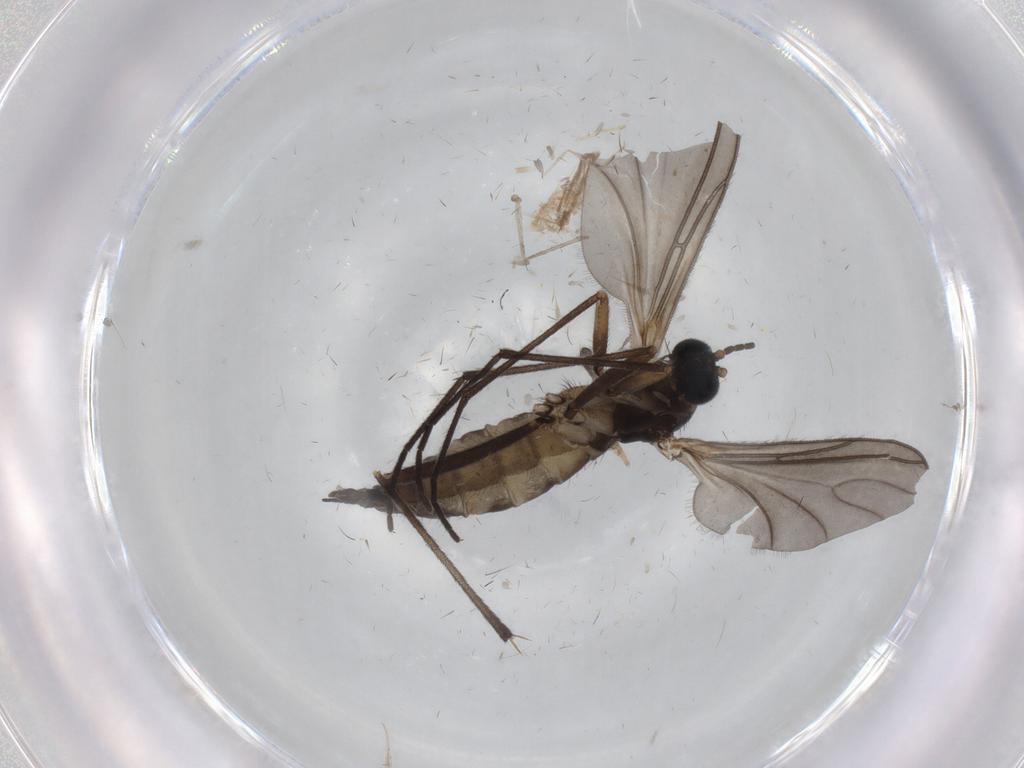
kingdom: Animalia
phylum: Arthropoda
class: Insecta
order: Diptera
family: Sciaridae
